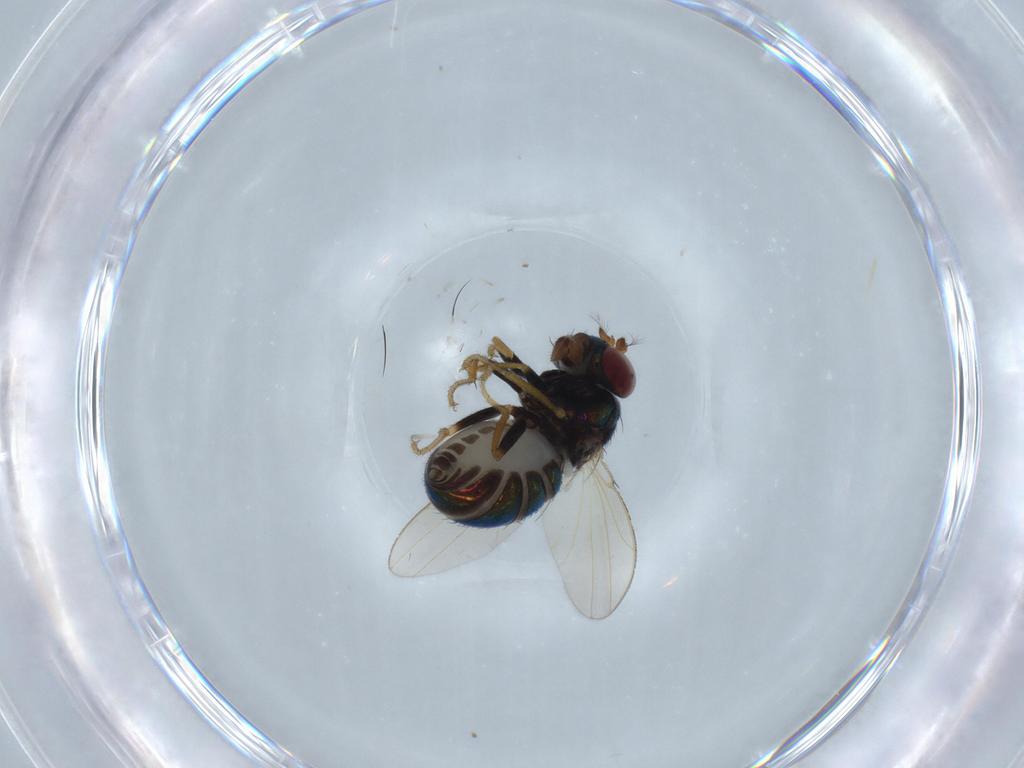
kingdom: Animalia
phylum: Arthropoda
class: Insecta
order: Diptera
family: Ephydridae
